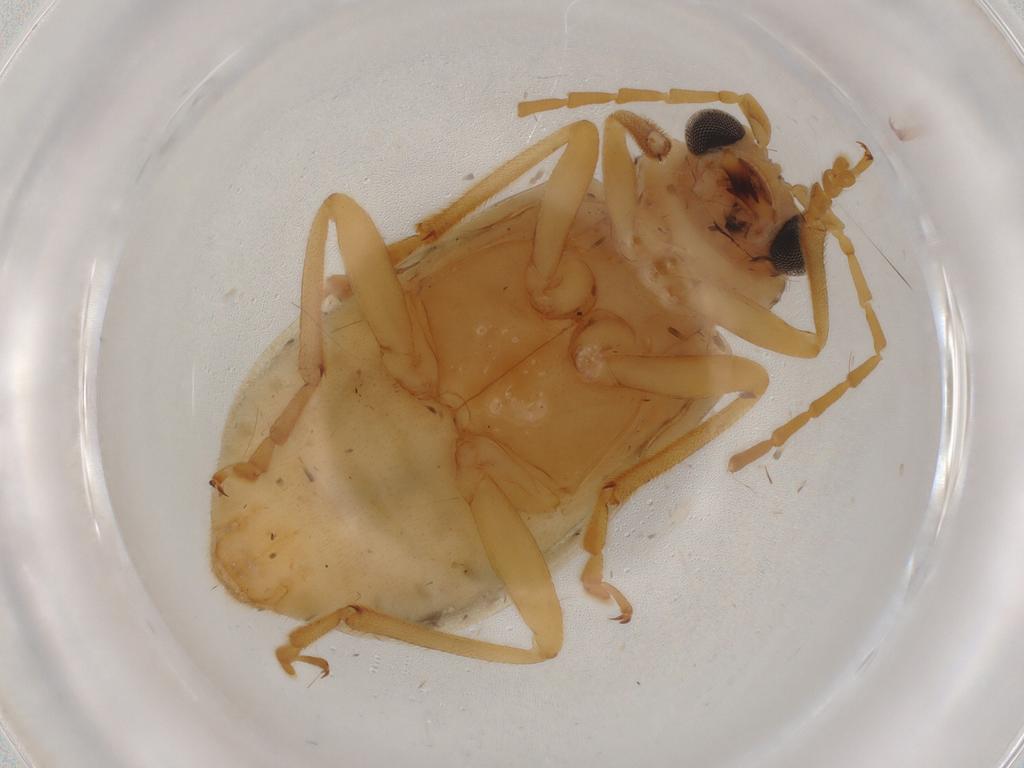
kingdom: Animalia
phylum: Arthropoda
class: Insecta
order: Coleoptera
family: Chrysomelidae
